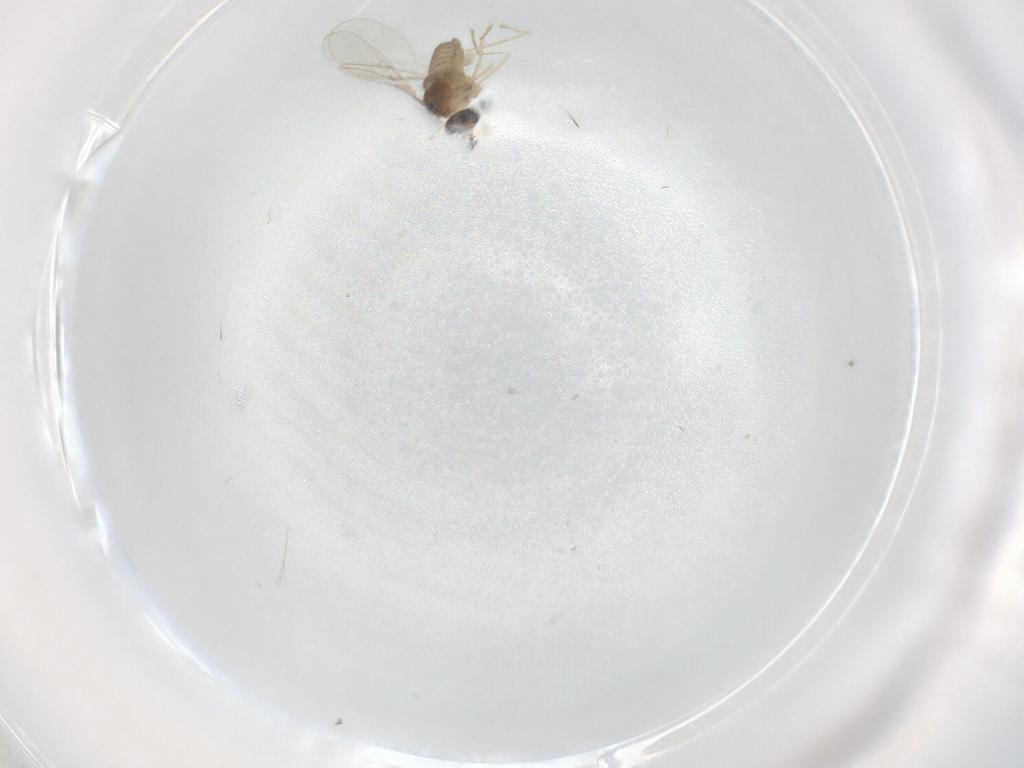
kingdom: Animalia
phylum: Arthropoda
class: Insecta
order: Diptera
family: Cecidomyiidae
